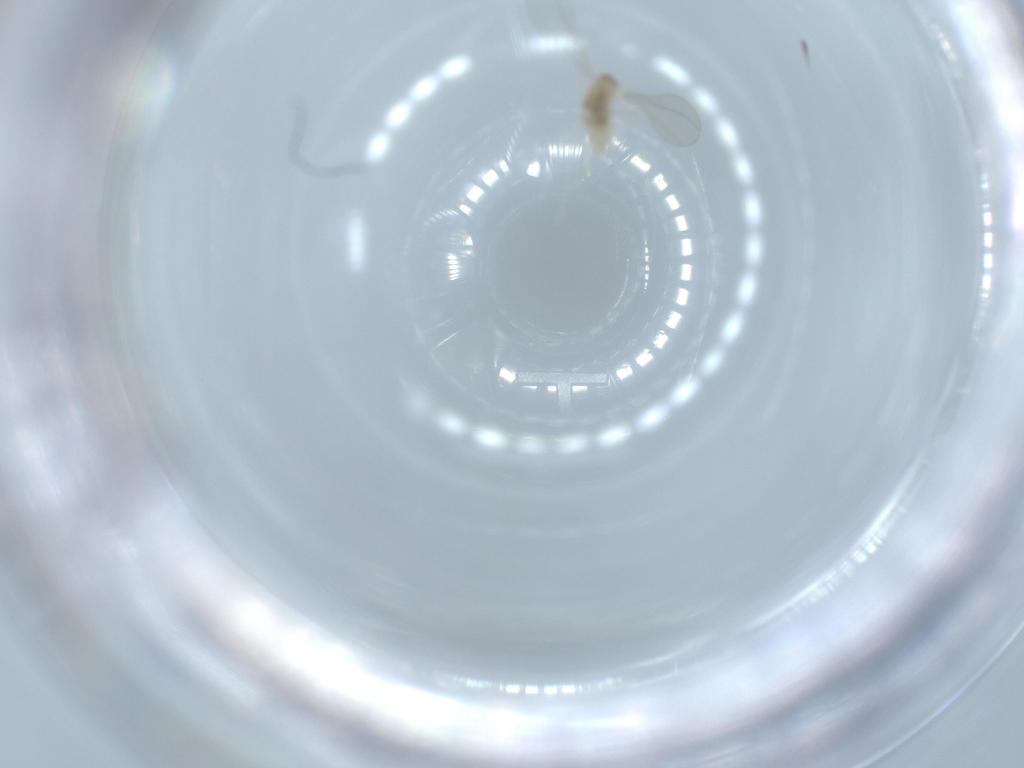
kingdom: Animalia
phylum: Arthropoda
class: Insecta
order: Diptera
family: Cecidomyiidae
